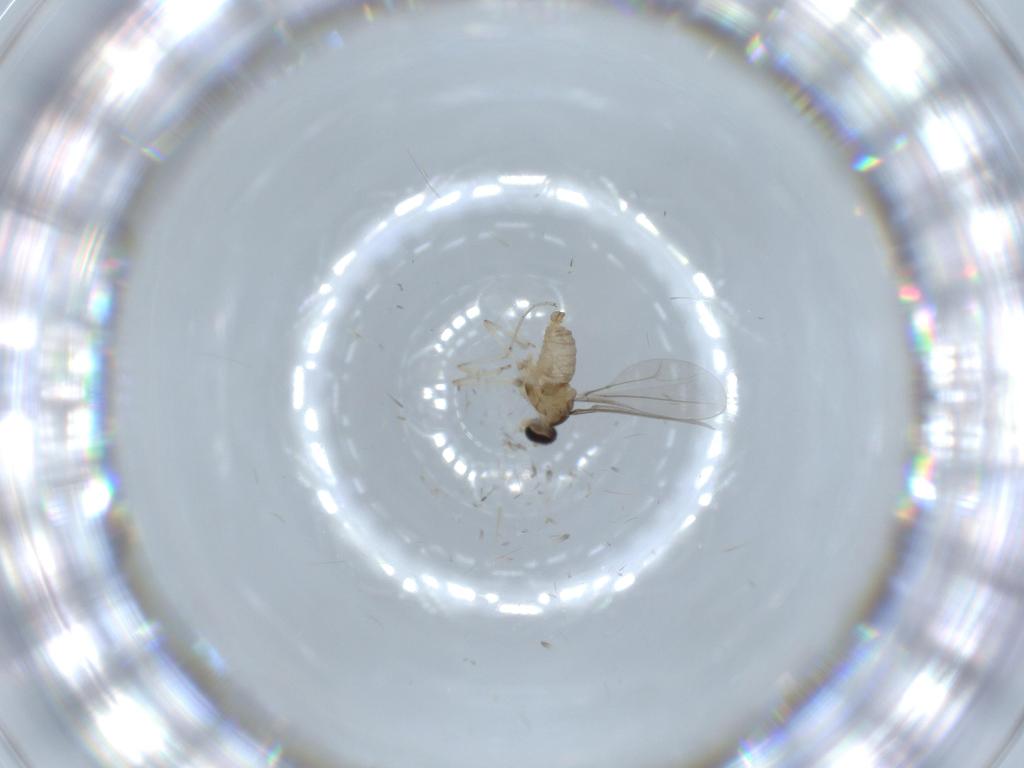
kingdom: Animalia
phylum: Arthropoda
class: Insecta
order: Diptera
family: Cecidomyiidae
